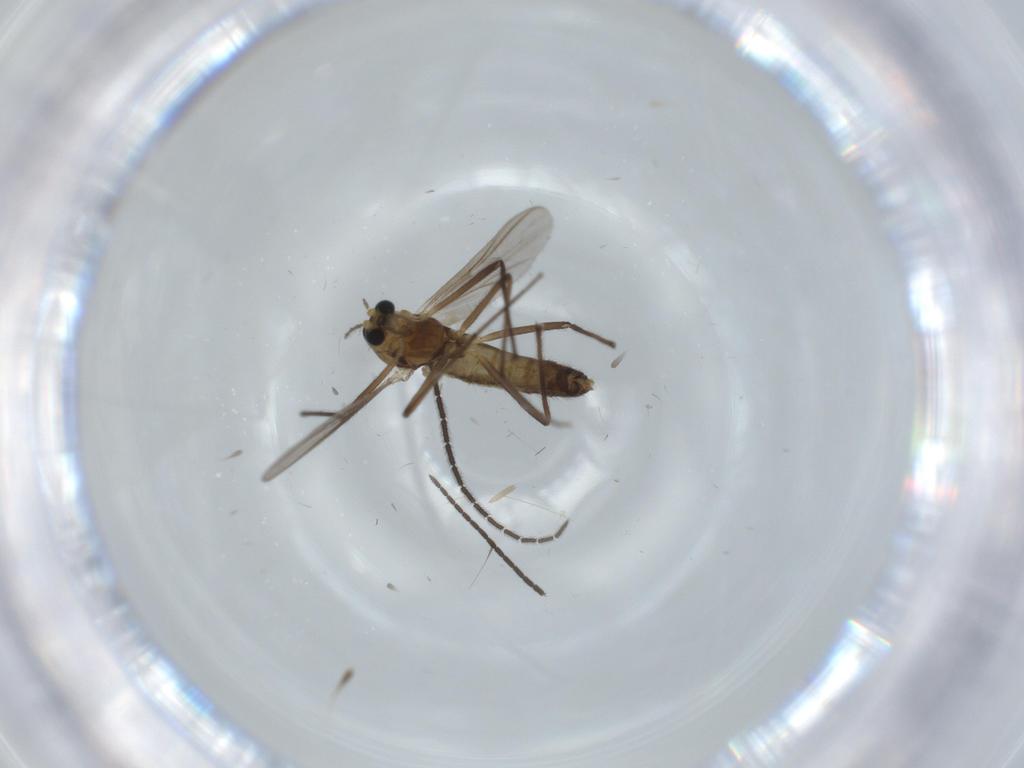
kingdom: Animalia
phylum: Arthropoda
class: Insecta
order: Diptera
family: Chironomidae
